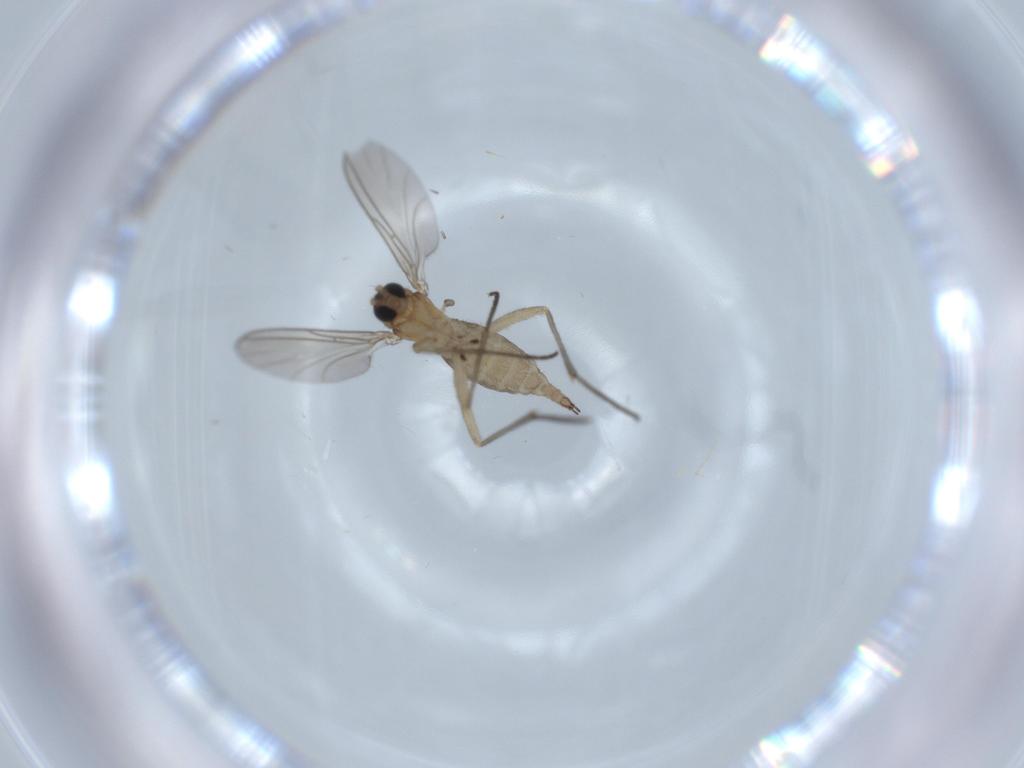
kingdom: Animalia
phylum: Arthropoda
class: Insecta
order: Diptera
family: Sciaridae
